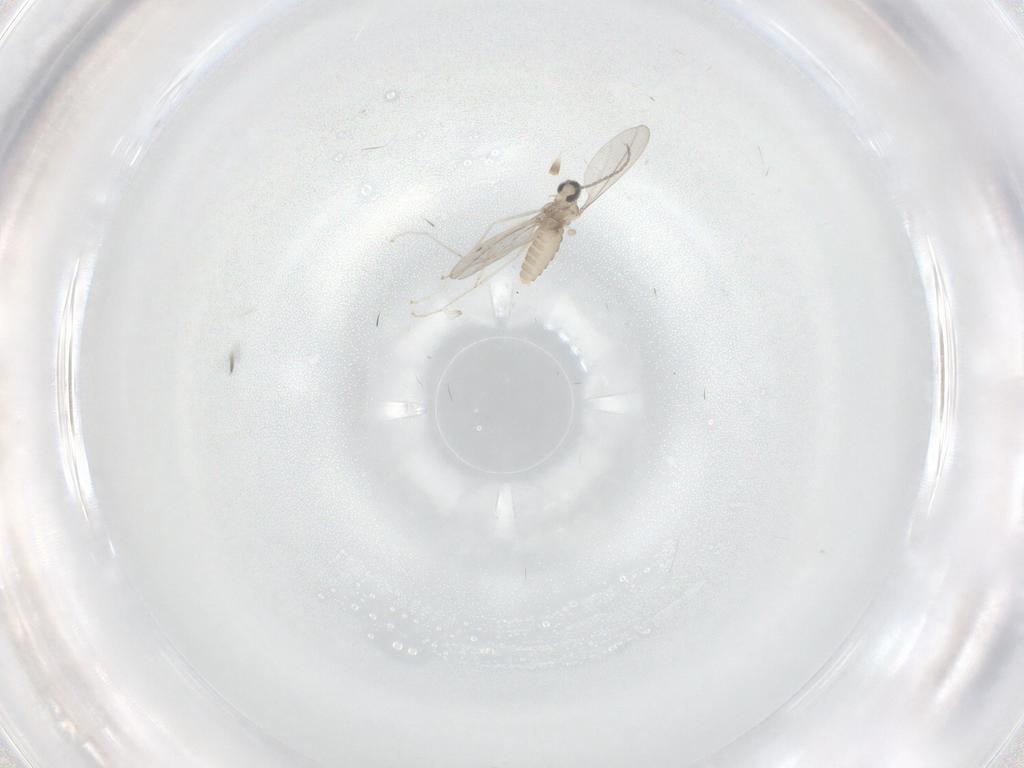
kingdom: Animalia
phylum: Arthropoda
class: Insecta
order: Diptera
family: Cecidomyiidae
